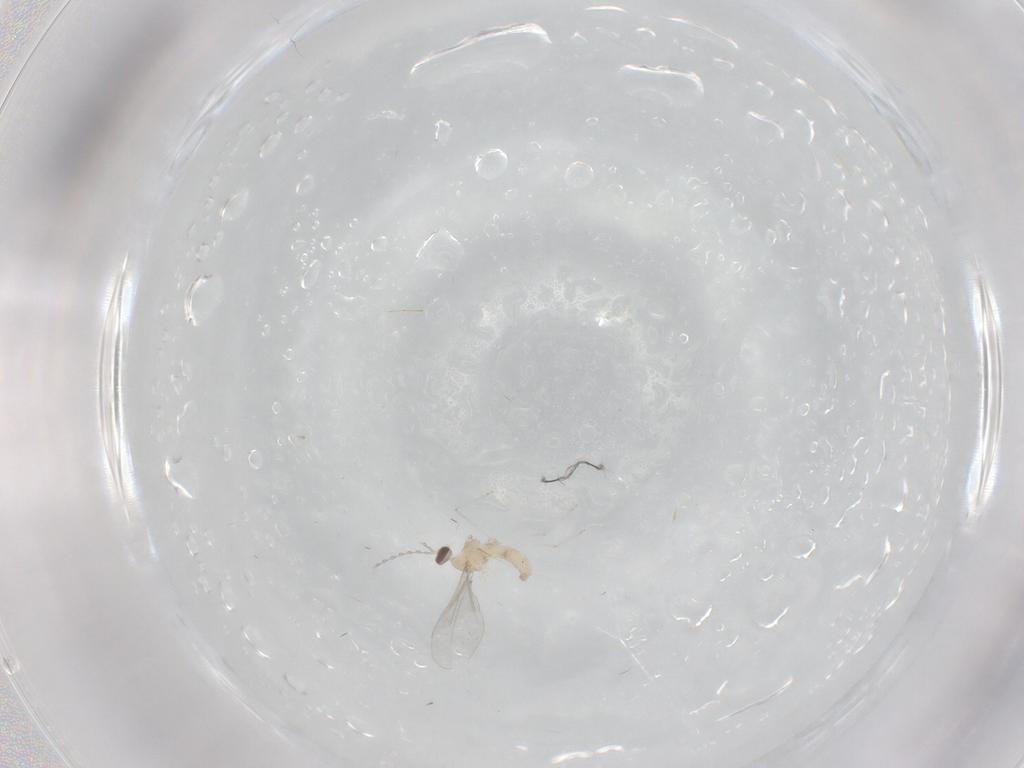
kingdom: Animalia
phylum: Arthropoda
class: Insecta
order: Diptera
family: Cecidomyiidae
